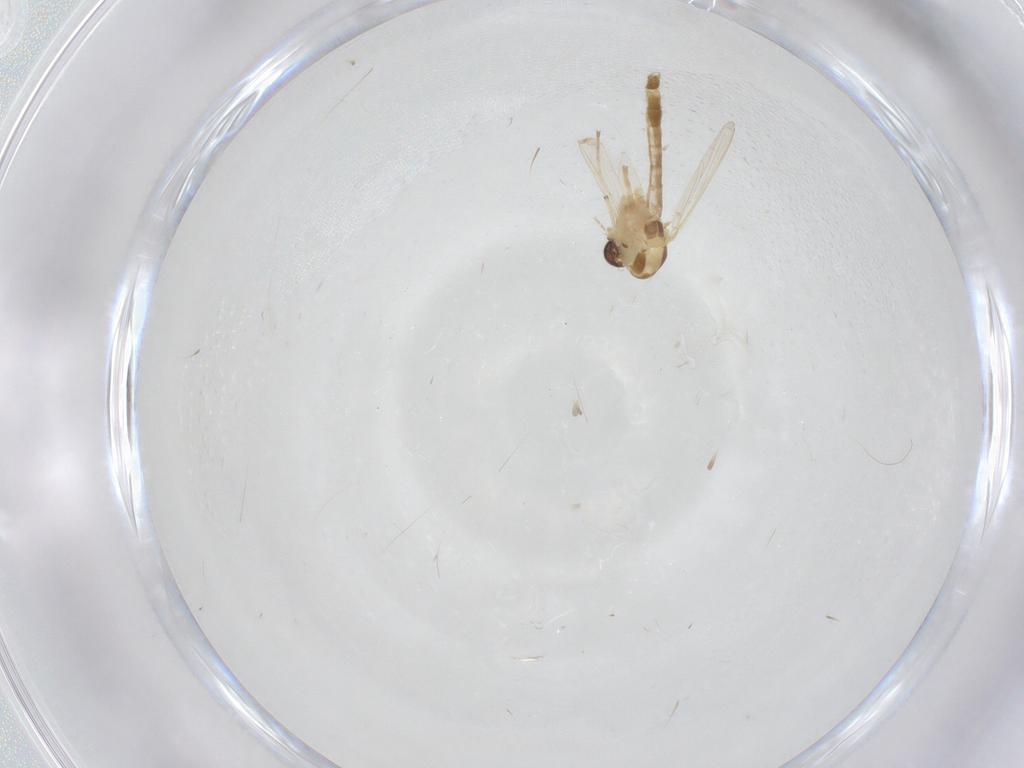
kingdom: Animalia
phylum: Arthropoda
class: Insecta
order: Diptera
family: Chironomidae
